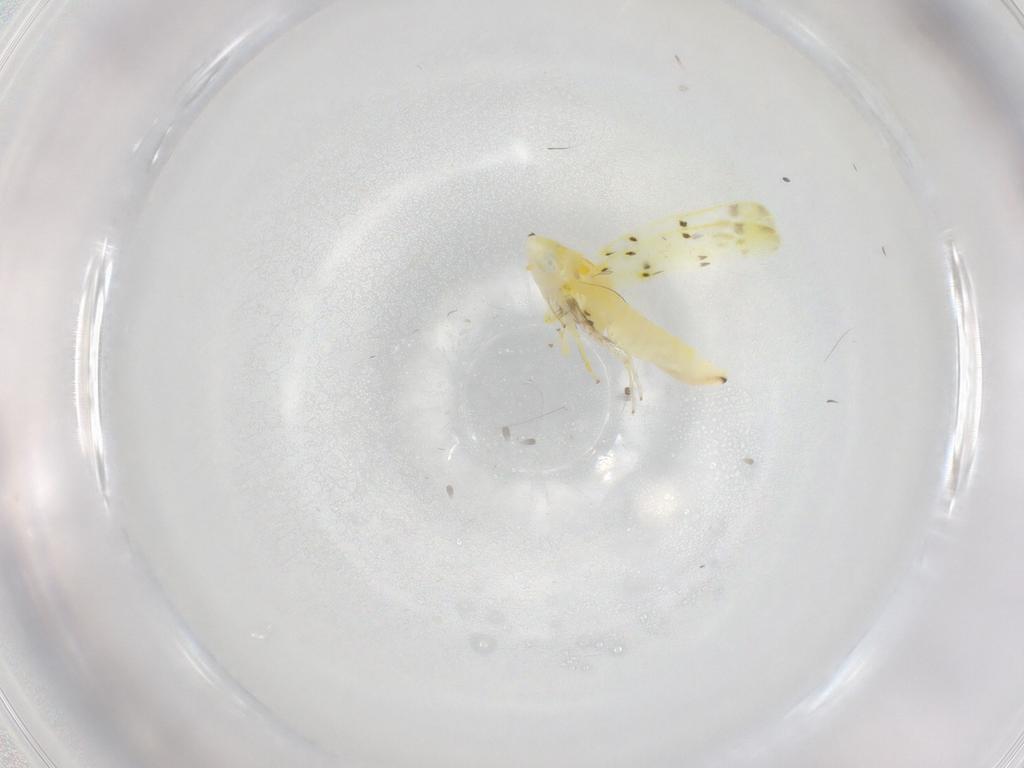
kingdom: Animalia
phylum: Arthropoda
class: Insecta
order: Hemiptera
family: Cicadellidae
